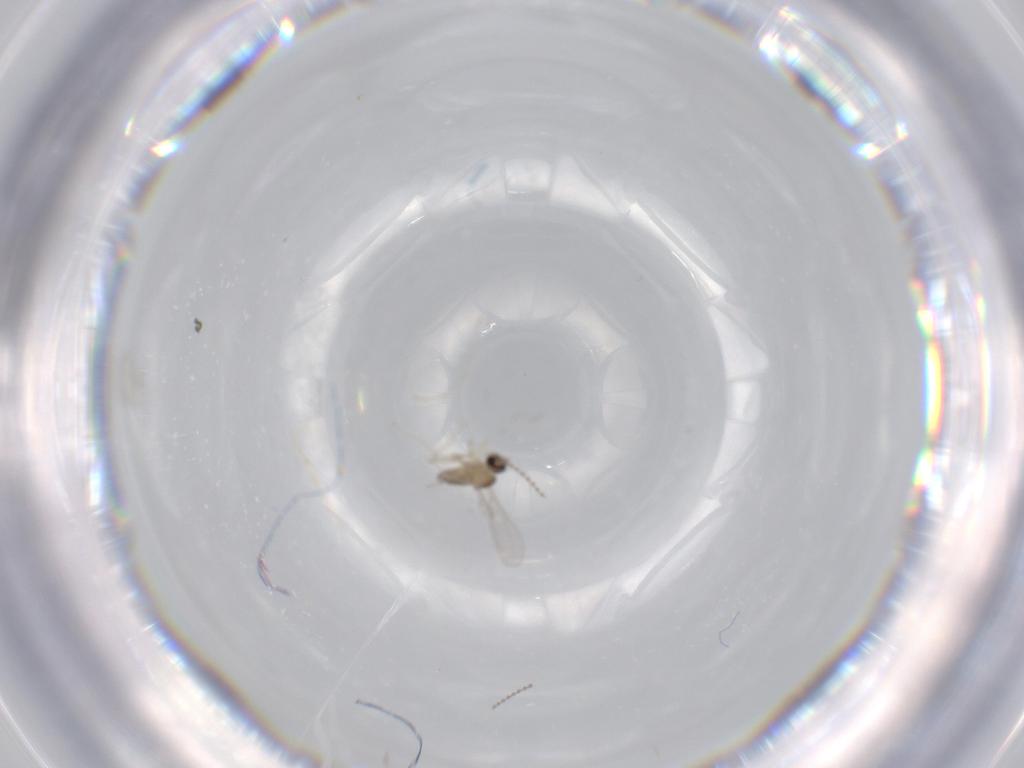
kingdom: Animalia
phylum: Arthropoda
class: Insecta
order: Diptera
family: Cecidomyiidae
